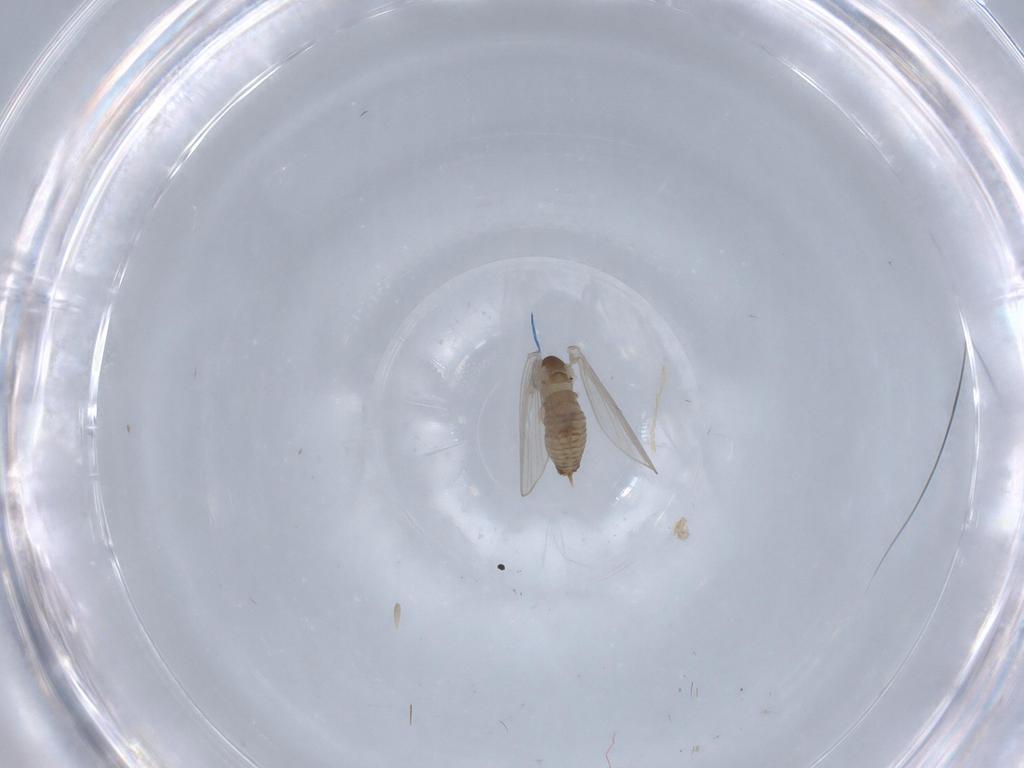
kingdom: Animalia
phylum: Arthropoda
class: Insecta
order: Diptera
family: Psychodidae
